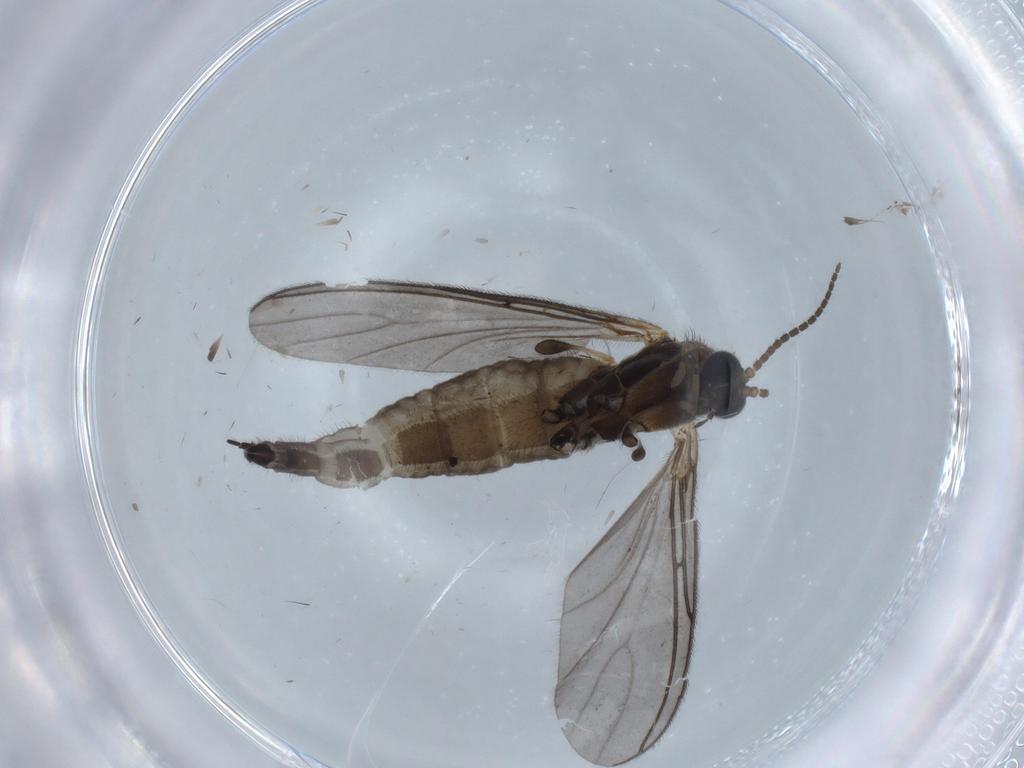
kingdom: Animalia
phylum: Arthropoda
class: Insecta
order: Diptera
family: Sciaridae
